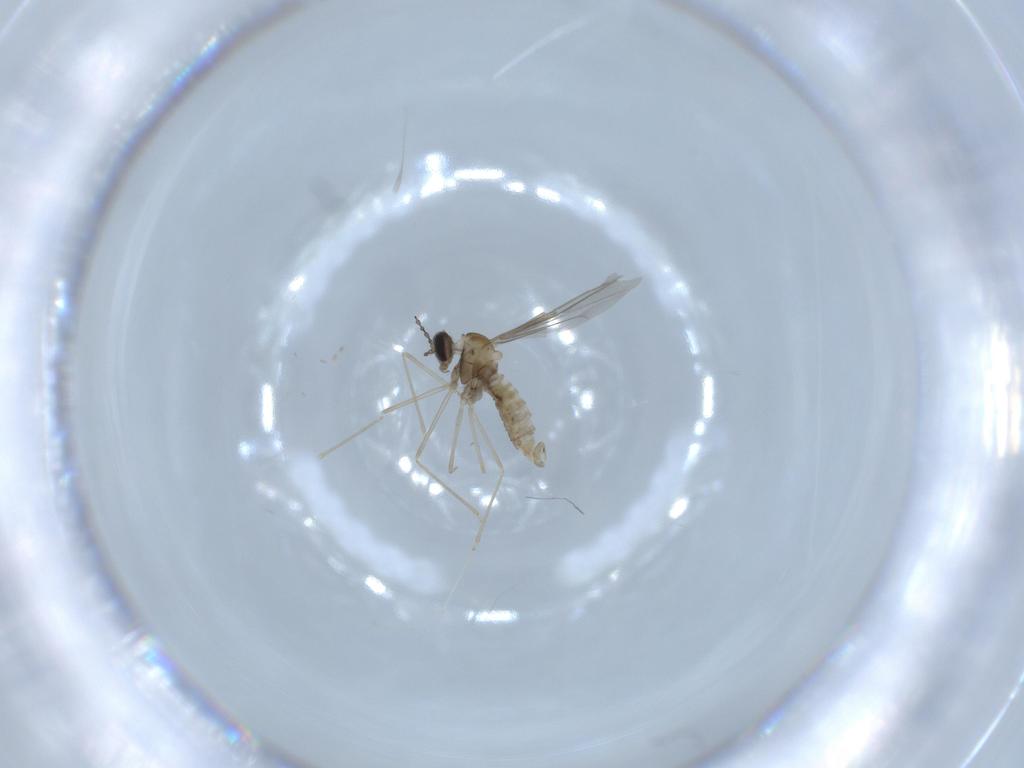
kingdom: Animalia
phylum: Arthropoda
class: Insecta
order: Diptera
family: Cecidomyiidae
